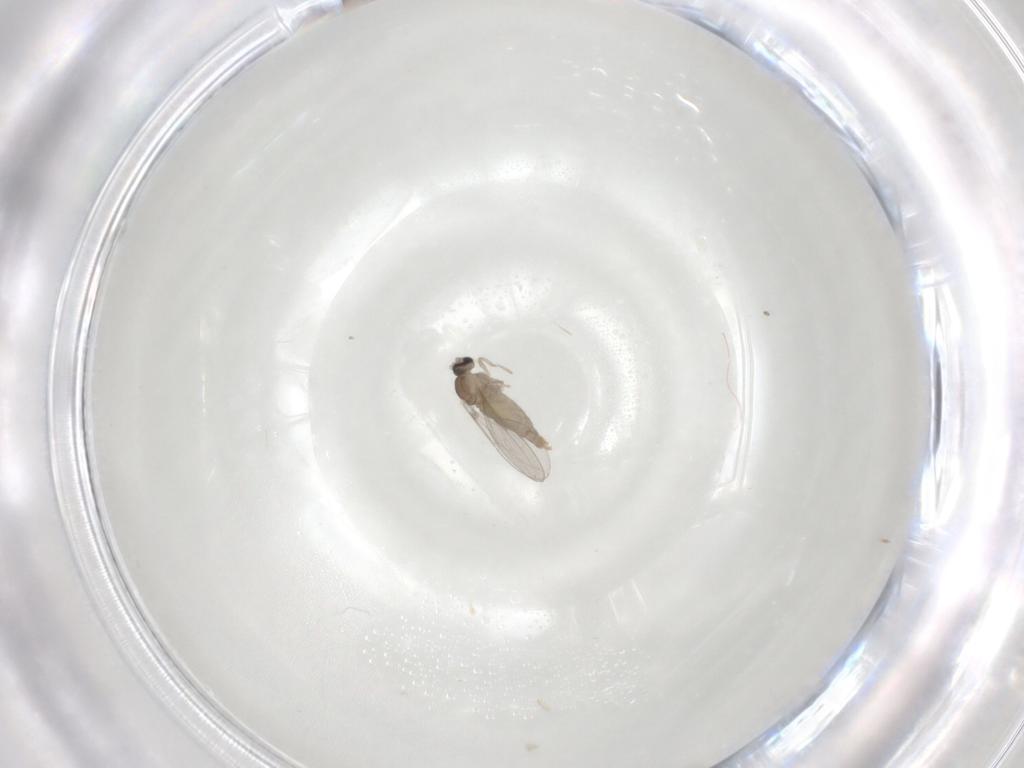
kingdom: Animalia
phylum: Arthropoda
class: Insecta
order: Diptera
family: Cecidomyiidae
